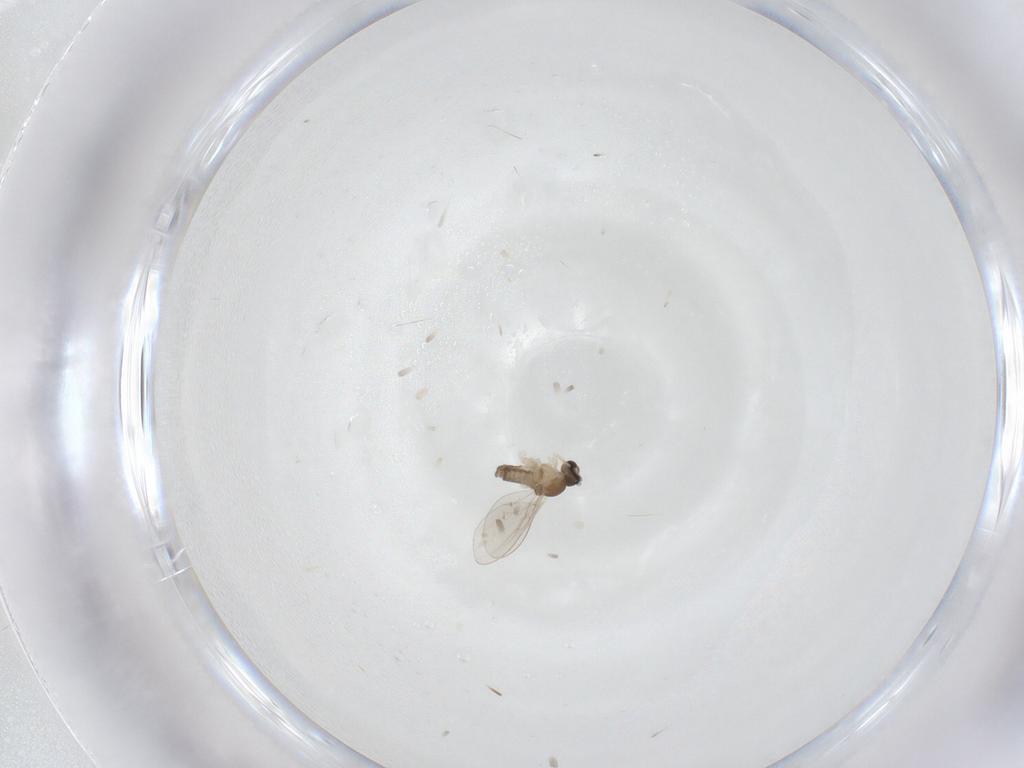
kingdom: Animalia
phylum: Arthropoda
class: Insecta
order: Diptera
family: Cecidomyiidae
